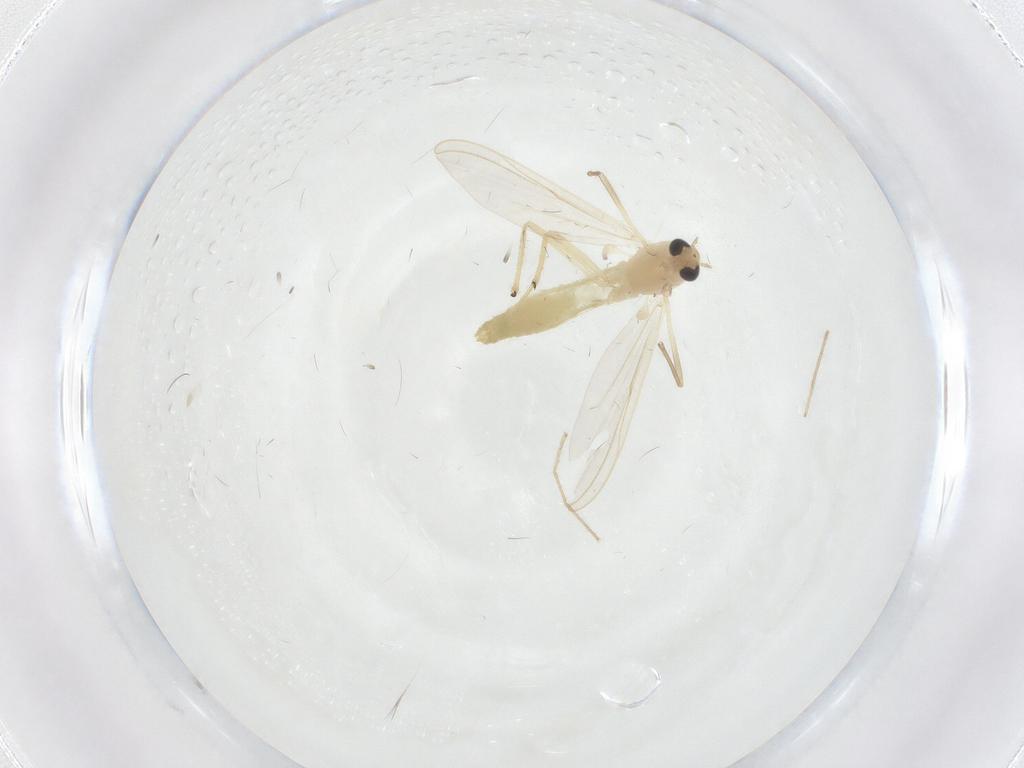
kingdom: Animalia
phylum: Arthropoda
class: Insecta
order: Diptera
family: Chironomidae
